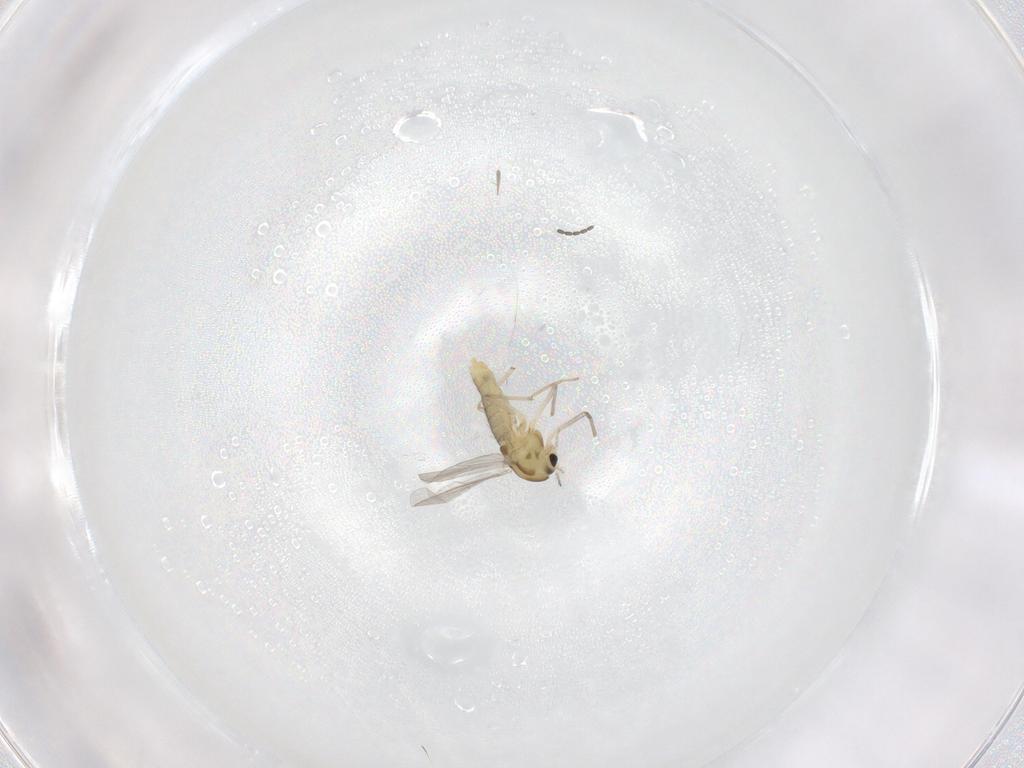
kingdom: Animalia
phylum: Arthropoda
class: Insecta
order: Diptera
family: Chironomidae
